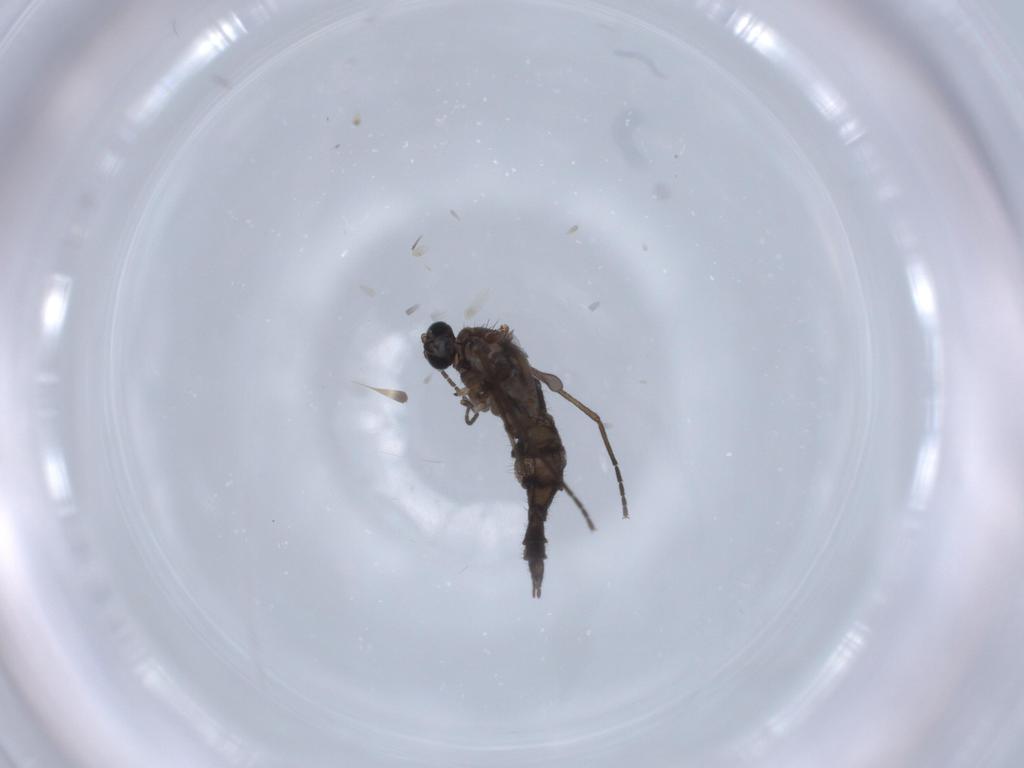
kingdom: Animalia
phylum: Arthropoda
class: Insecta
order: Diptera
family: Sciaridae
